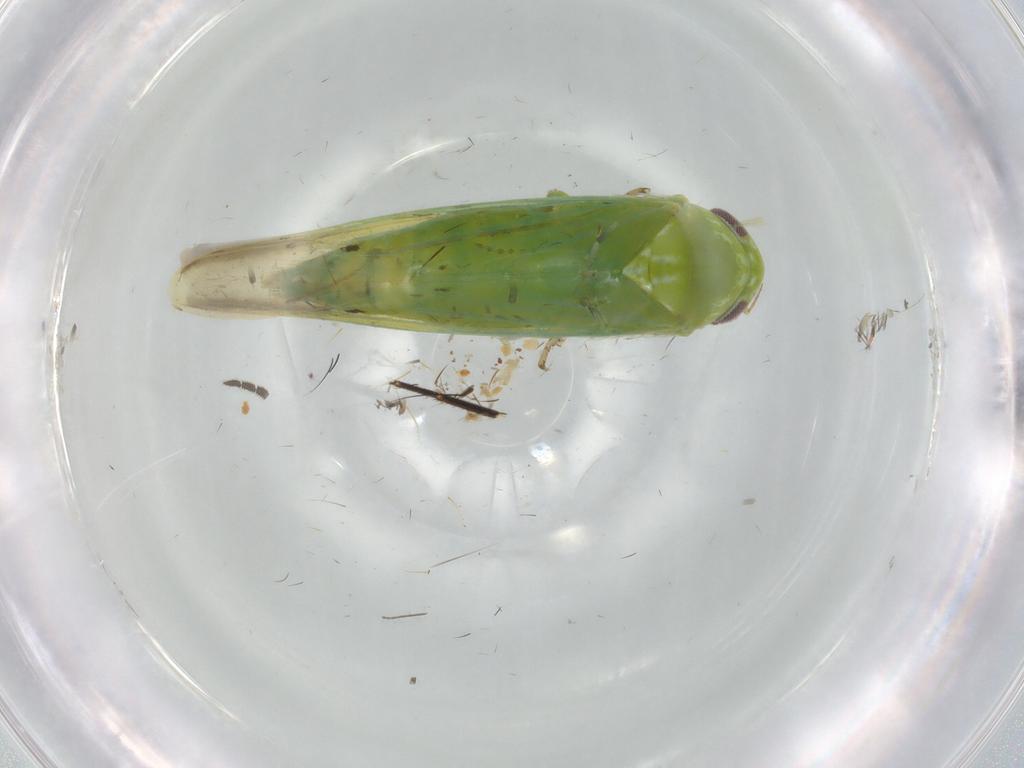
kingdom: Animalia
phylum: Arthropoda
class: Insecta
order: Hemiptera
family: Cicadellidae
